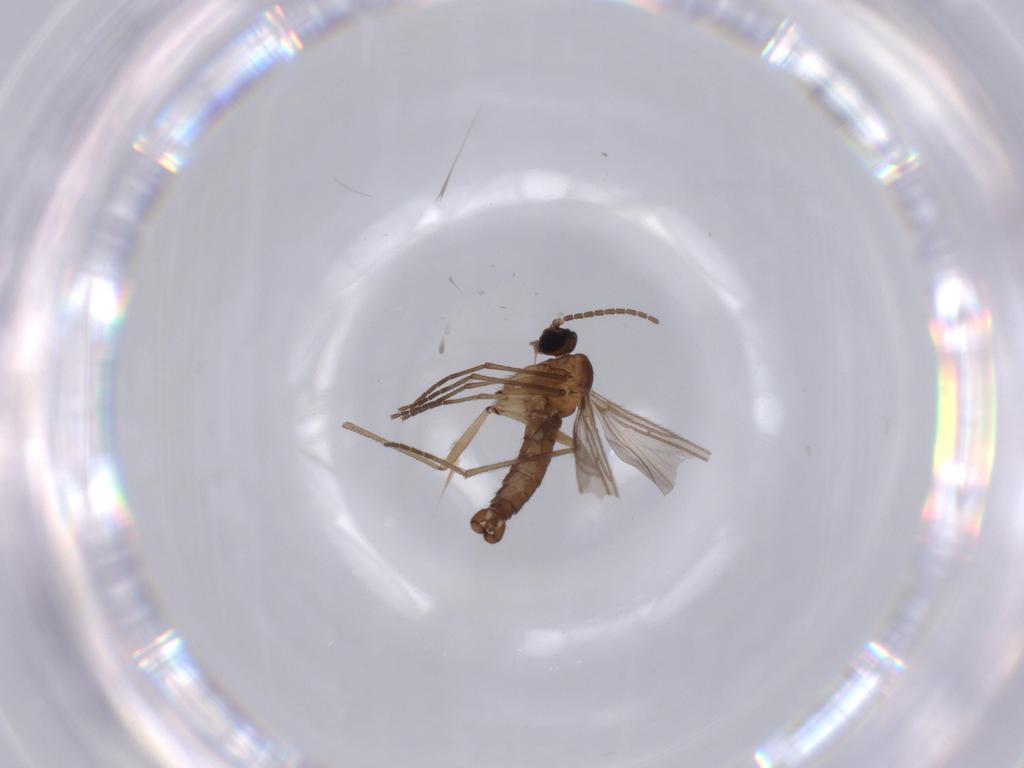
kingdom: Animalia
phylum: Arthropoda
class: Insecta
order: Diptera
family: Sciaridae
